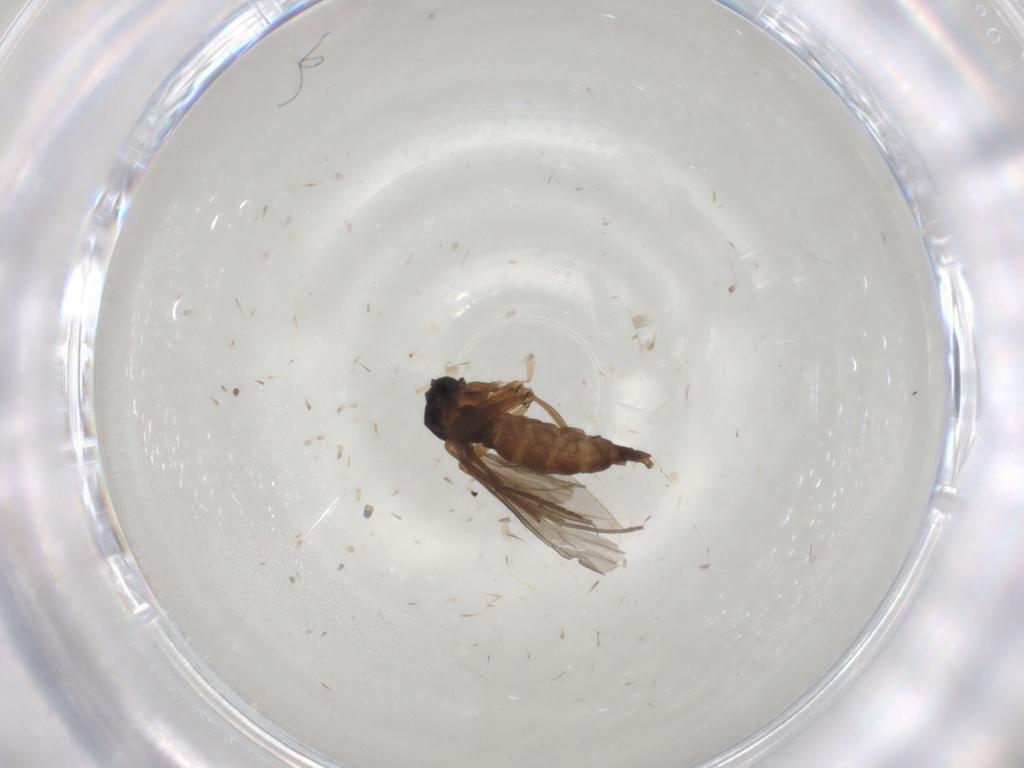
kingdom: Animalia
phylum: Arthropoda
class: Insecta
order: Diptera
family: Sciaridae
